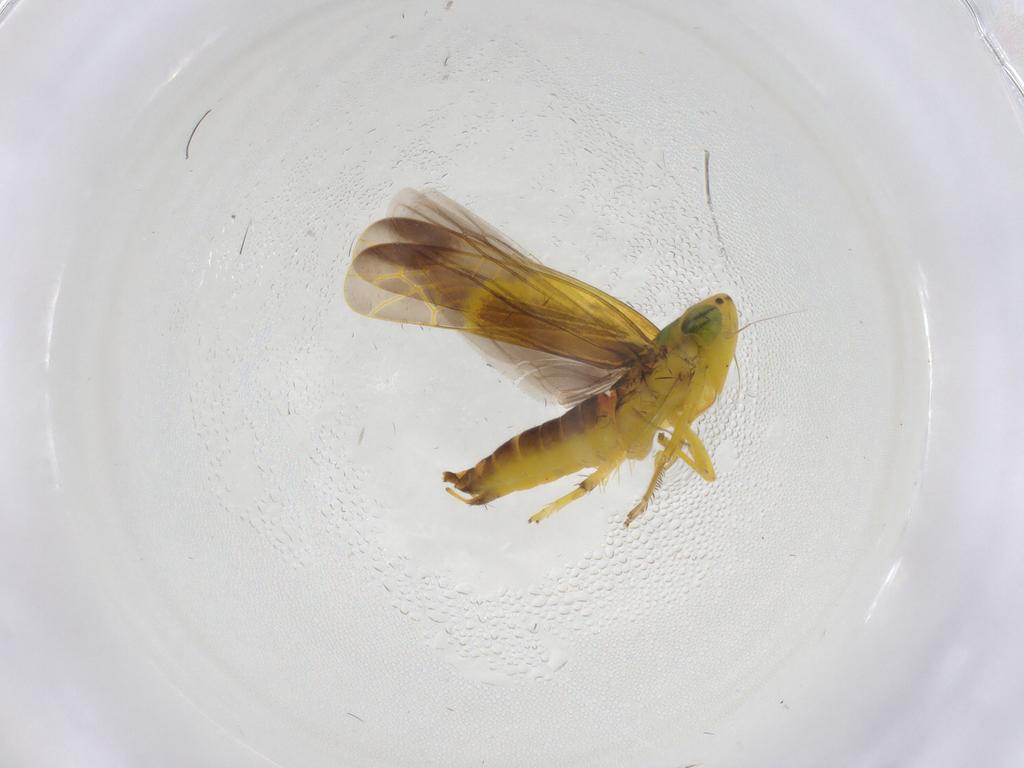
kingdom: Animalia
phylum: Arthropoda
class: Insecta
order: Hemiptera
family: Cicadellidae
